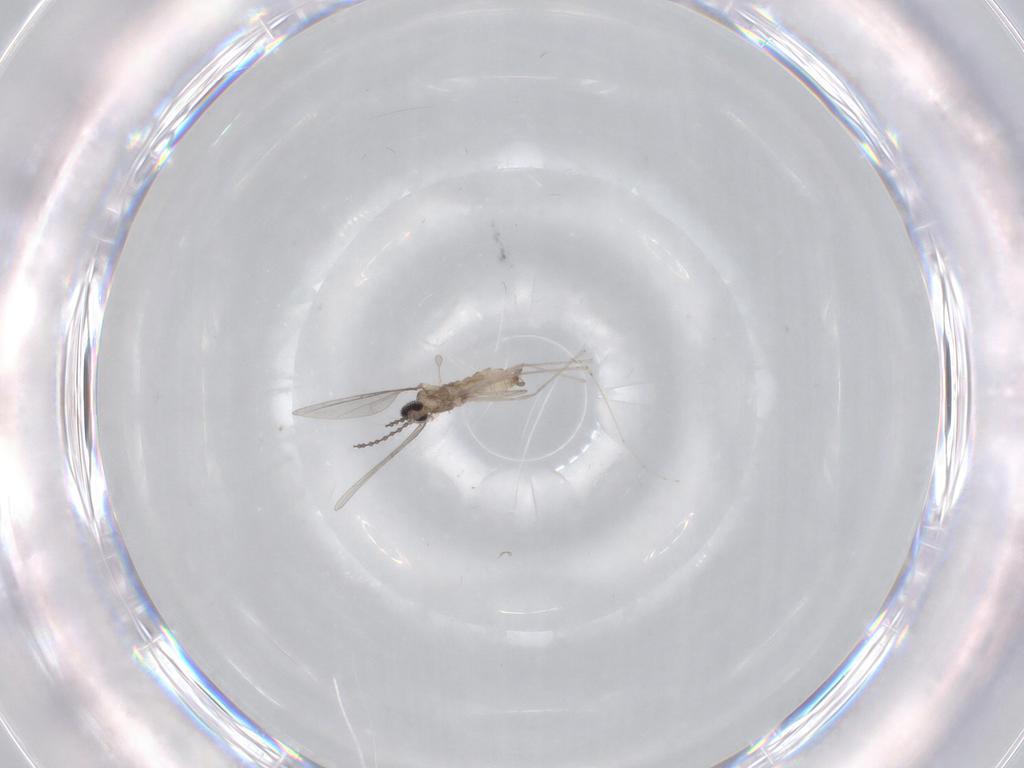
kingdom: Animalia
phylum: Arthropoda
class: Insecta
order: Diptera
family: Cecidomyiidae
